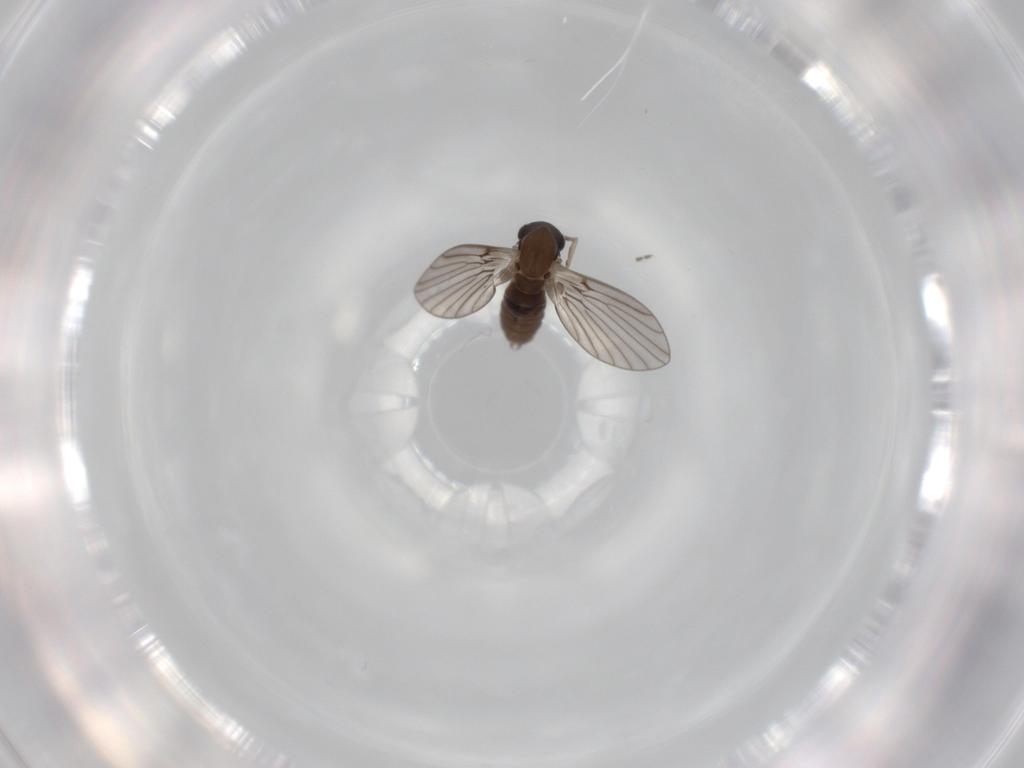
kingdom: Animalia
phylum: Arthropoda
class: Insecta
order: Diptera
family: Psychodidae
